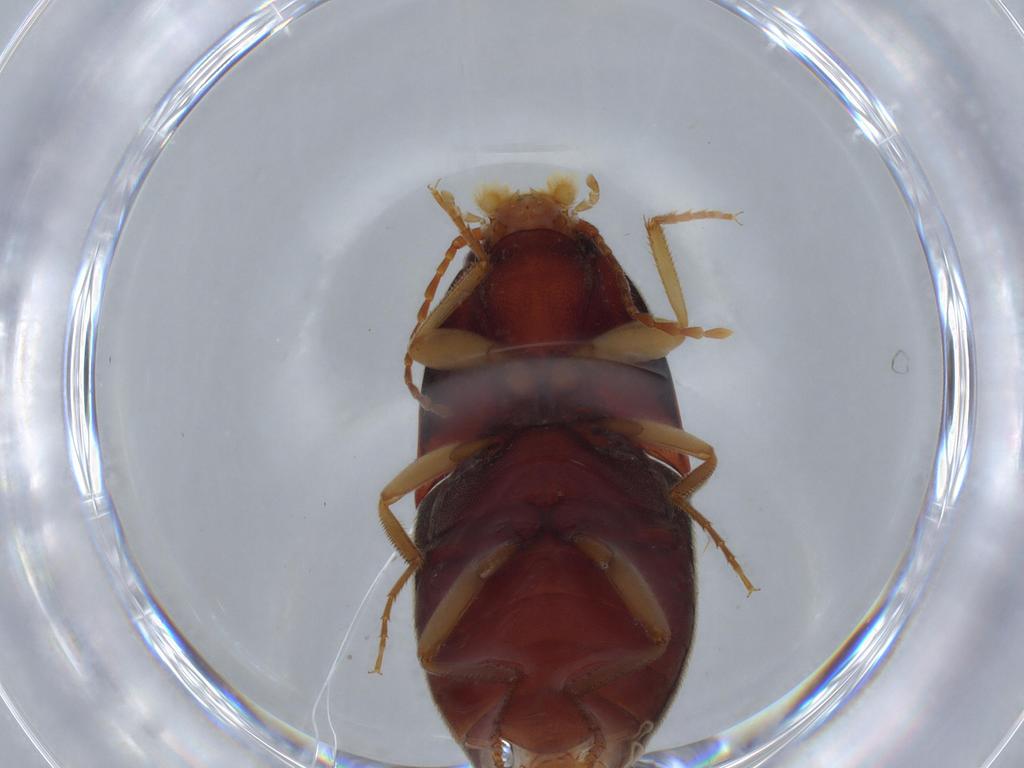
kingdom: Animalia
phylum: Arthropoda
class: Insecta
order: Coleoptera
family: Elateridae
